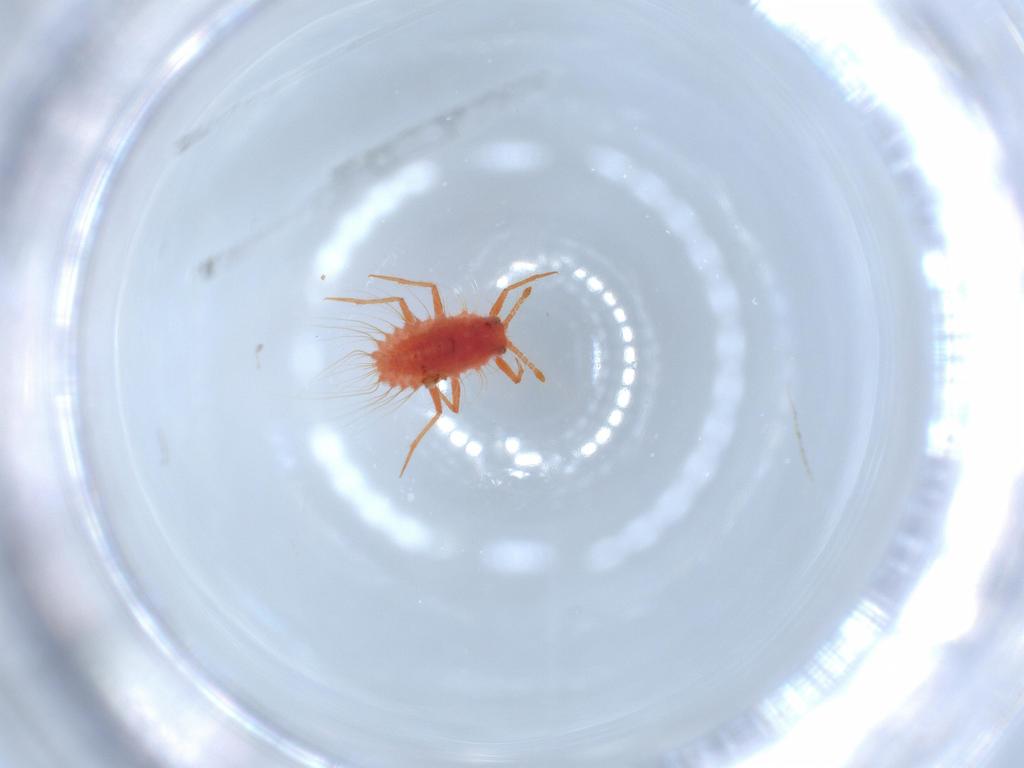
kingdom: Animalia
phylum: Arthropoda
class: Insecta
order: Hemiptera
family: Monophlebidae
